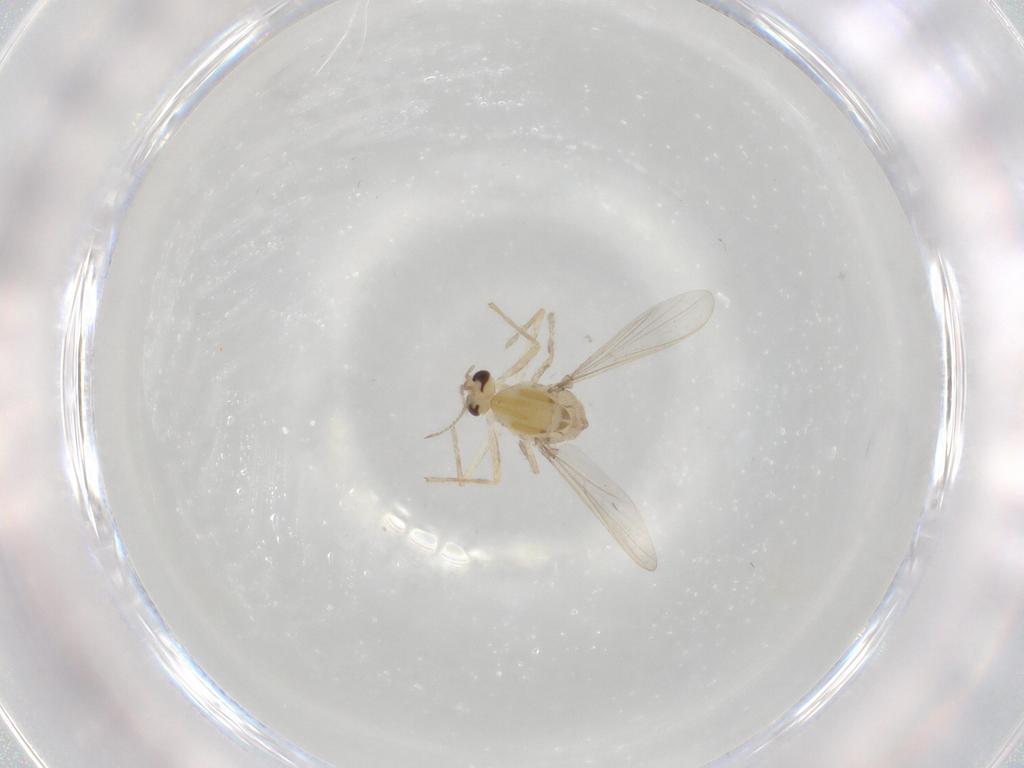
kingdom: Animalia
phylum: Arthropoda
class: Insecta
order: Diptera
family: Chironomidae
